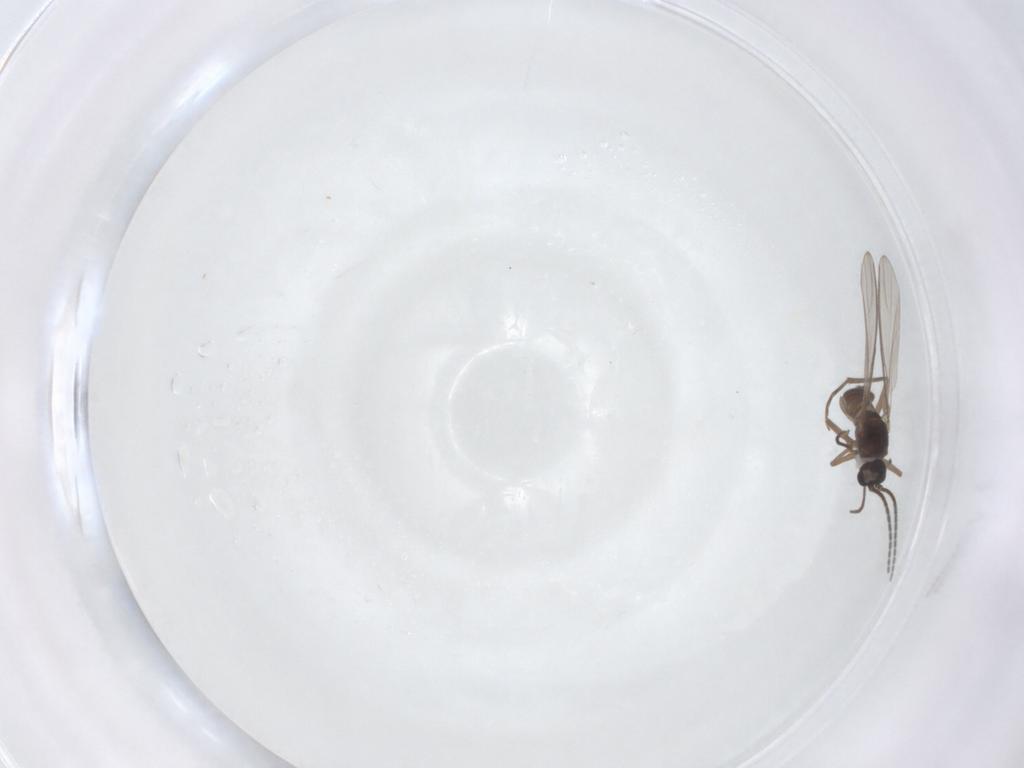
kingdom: Animalia
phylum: Arthropoda
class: Insecta
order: Diptera
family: Sciaridae
